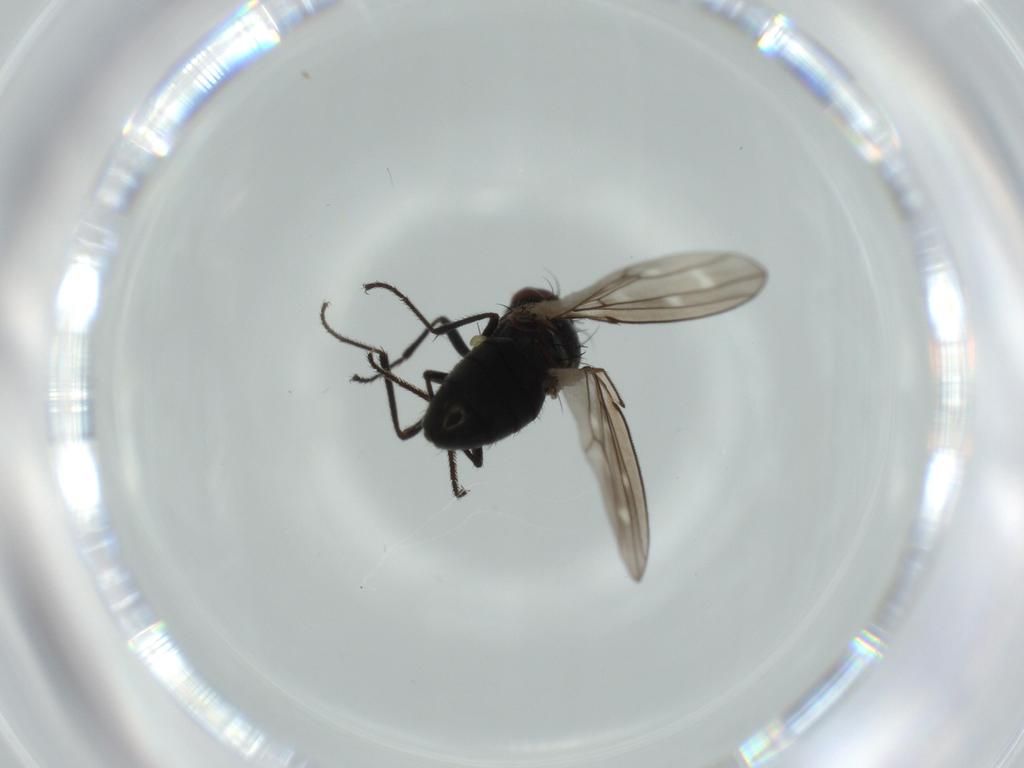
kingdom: Animalia
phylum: Arthropoda
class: Insecta
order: Diptera
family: Ephydridae
